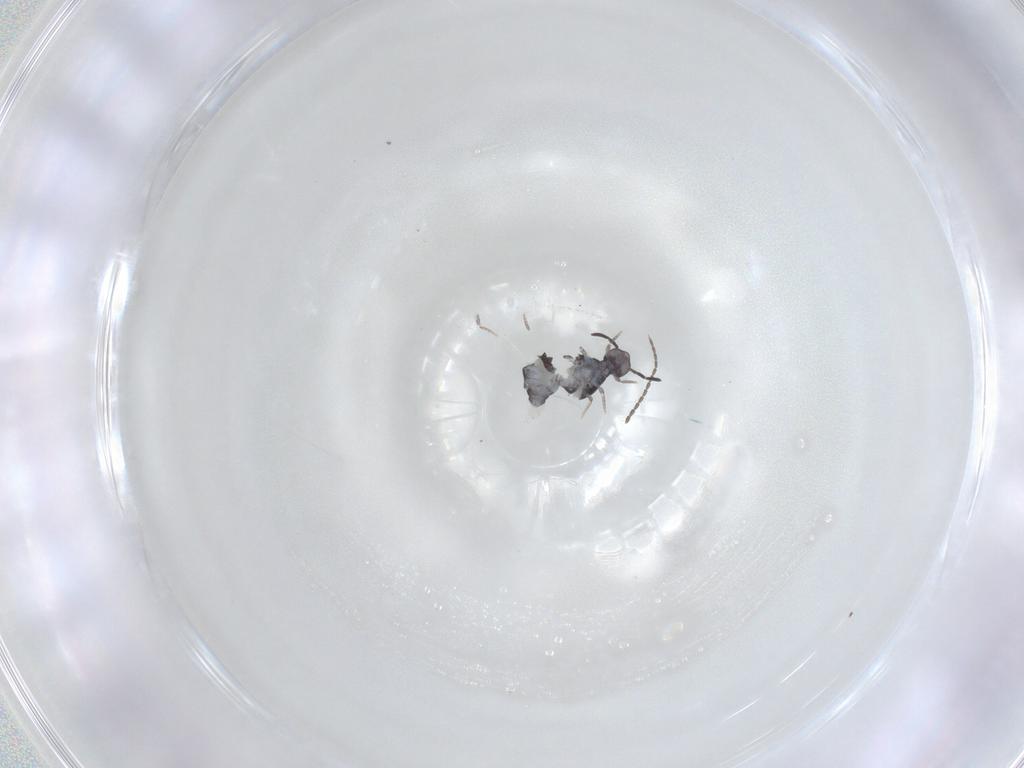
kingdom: Animalia
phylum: Arthropoda
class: Collembola
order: Symphypleona
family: Katiannidae
